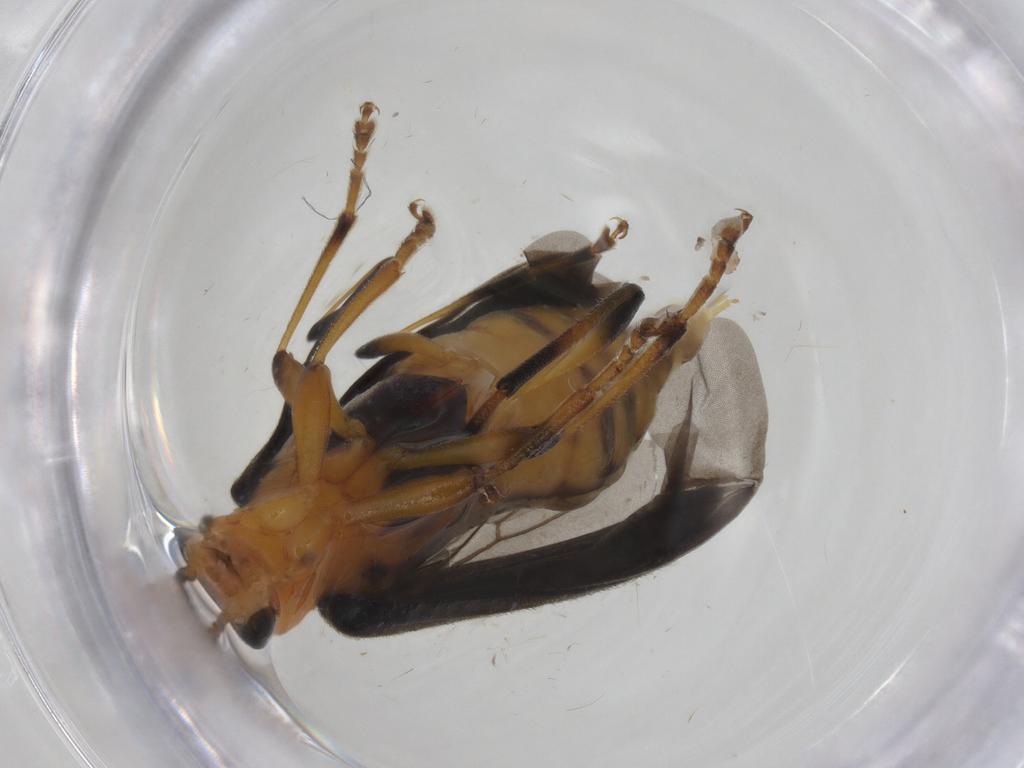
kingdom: Animalia
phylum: Arthropoda
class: Insecta
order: Coleoptera
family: Oedemeridae
